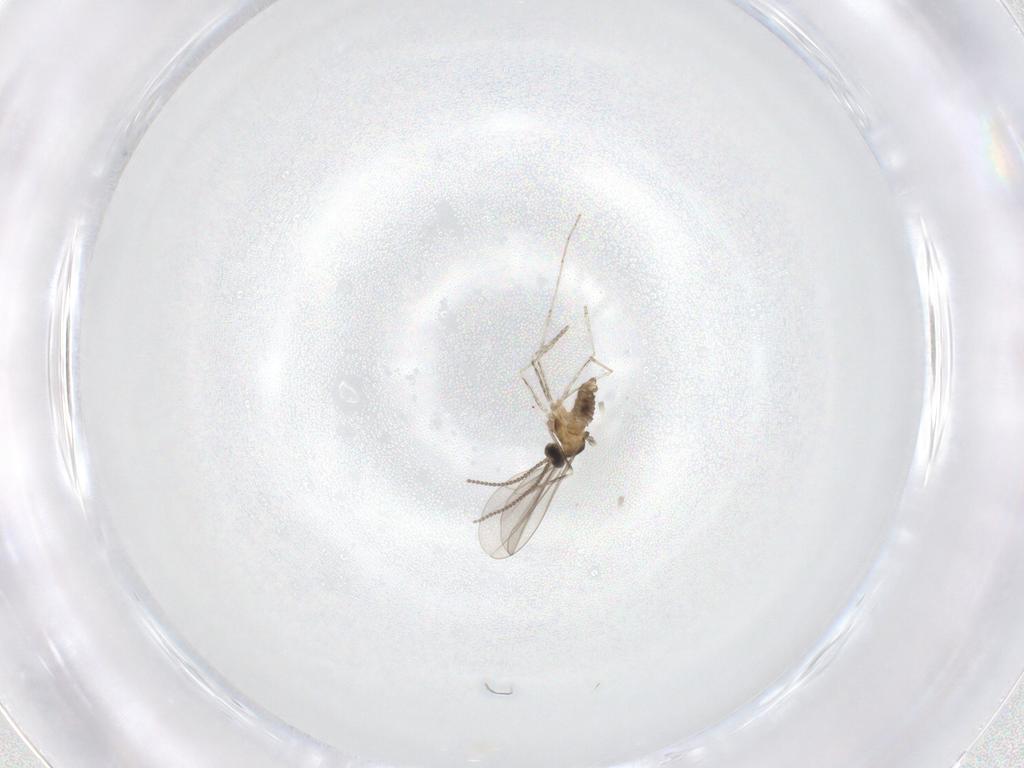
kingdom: Animalia
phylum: Arthropoda
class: Insecta
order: Diptera
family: Cecidomyiidae
